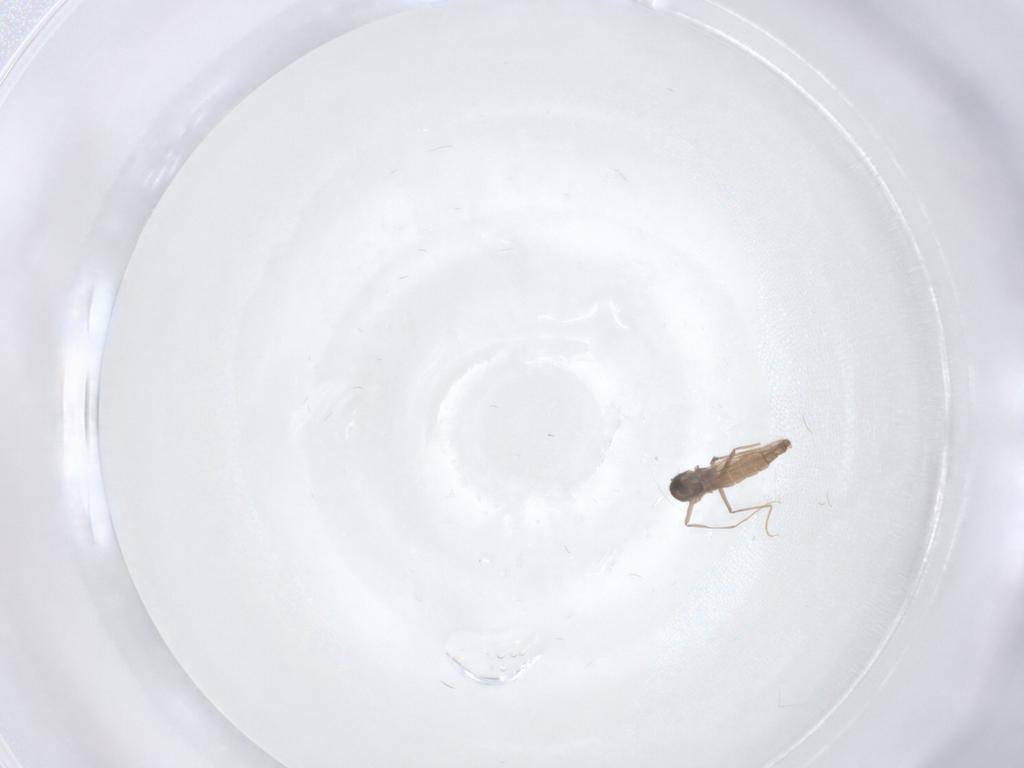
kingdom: Animalia
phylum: Arthropoda
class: Insecta
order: Diptera
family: Chironomidae
